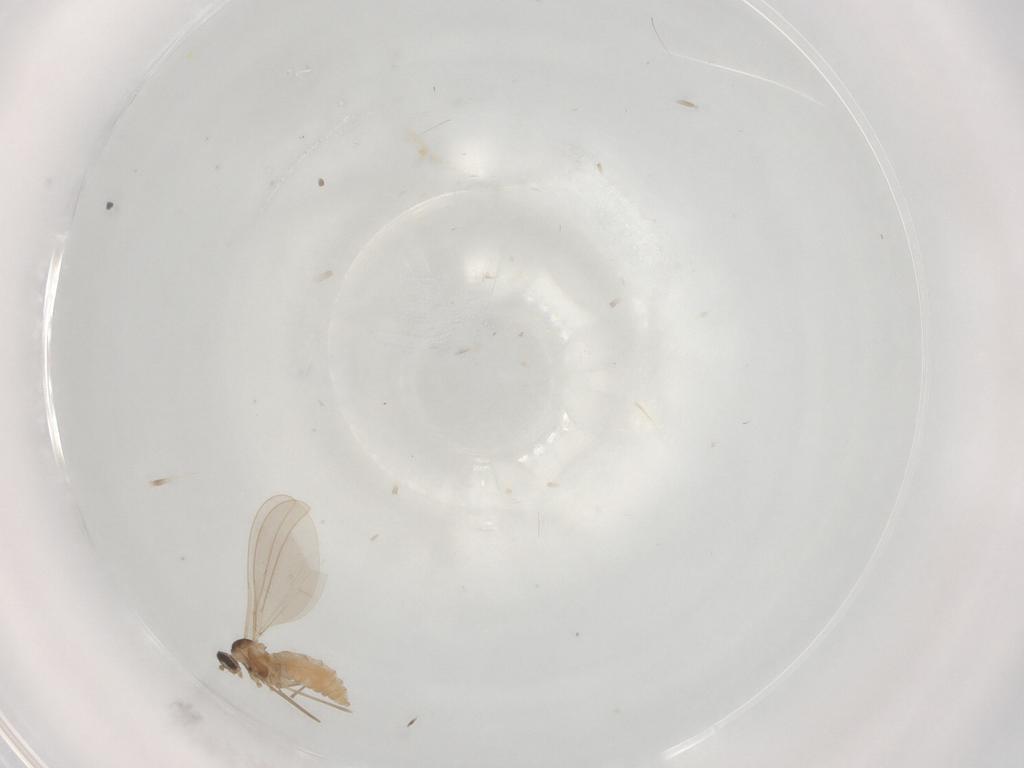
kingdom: Animalia
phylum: Arthropoda
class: Insecta
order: Diptera
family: Cecidomyiidae
